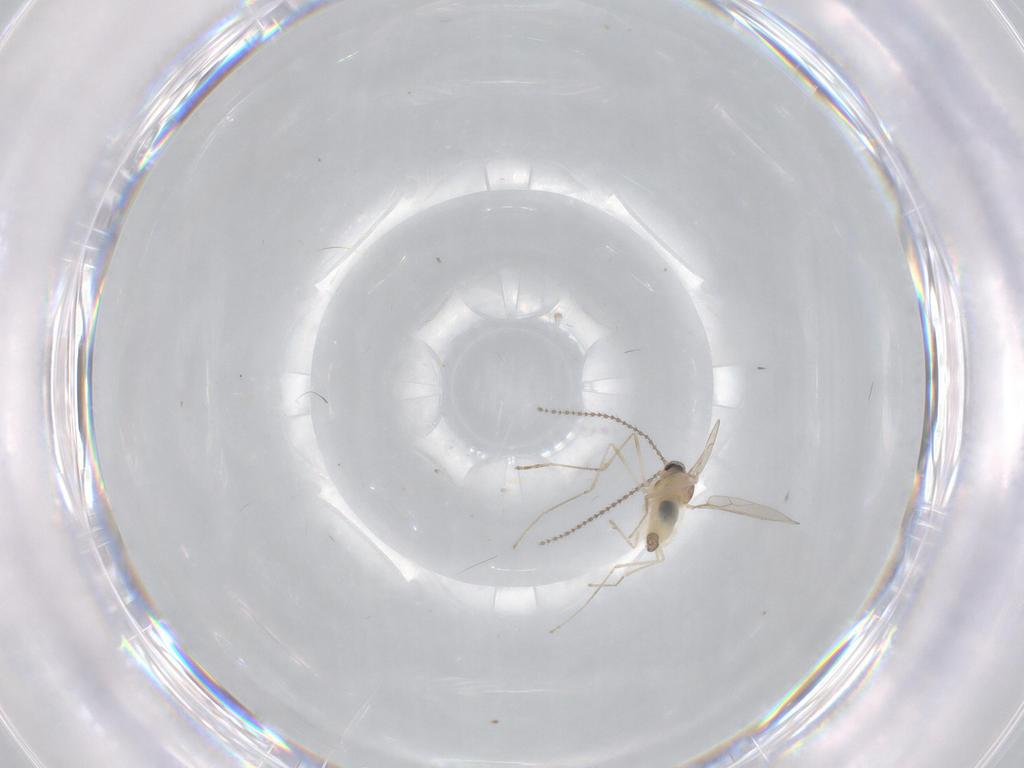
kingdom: Animalia
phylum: Arthropoda
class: Insecta
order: Diptera
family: Cecidomyiidae
